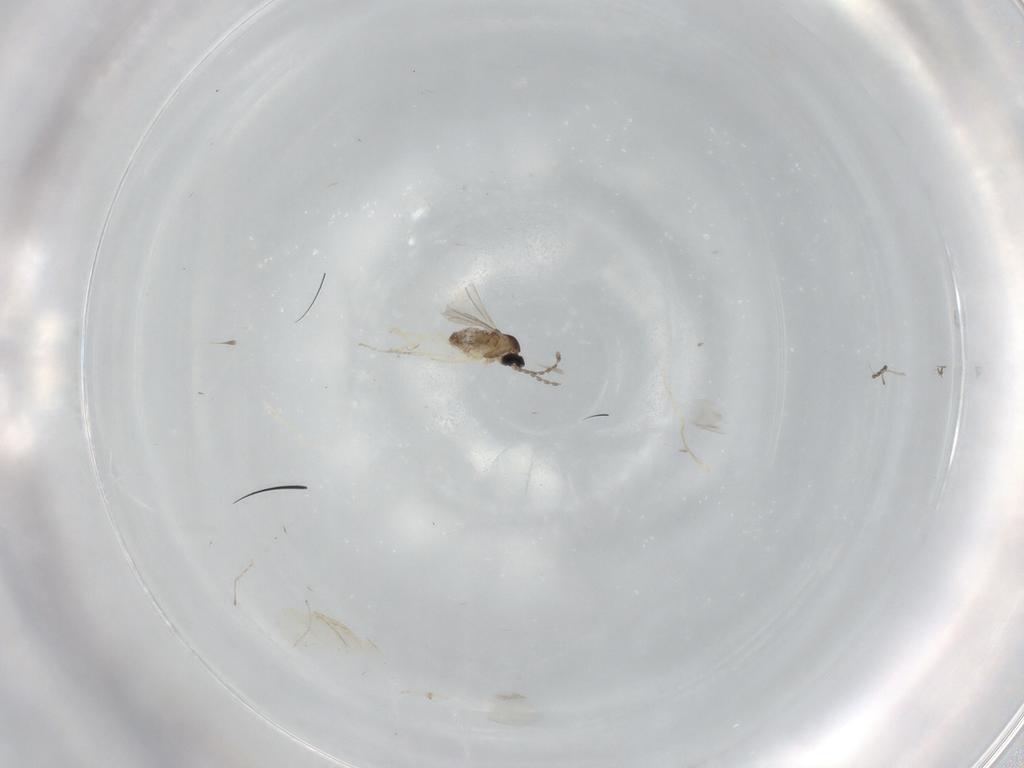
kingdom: Animalia
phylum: Arthropoda
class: Insecta
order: Diptera
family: Cecidomyiidae
